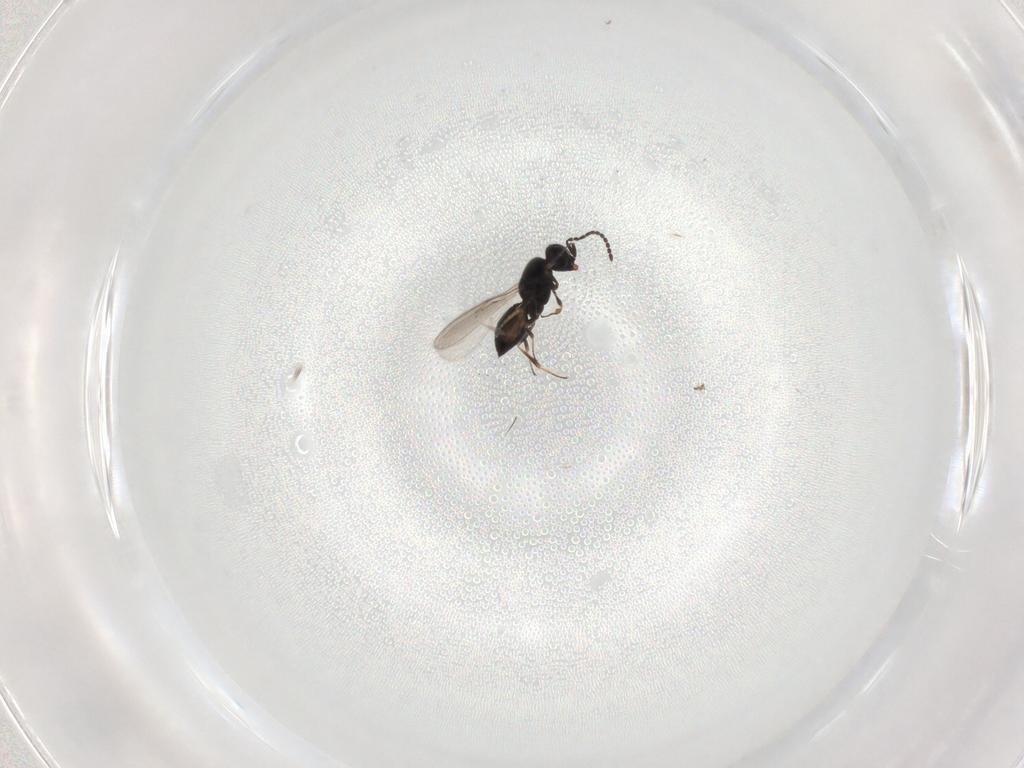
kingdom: Animalia
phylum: Arthropoda
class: Insecta
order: Hymenoptera
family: Scelionidae
